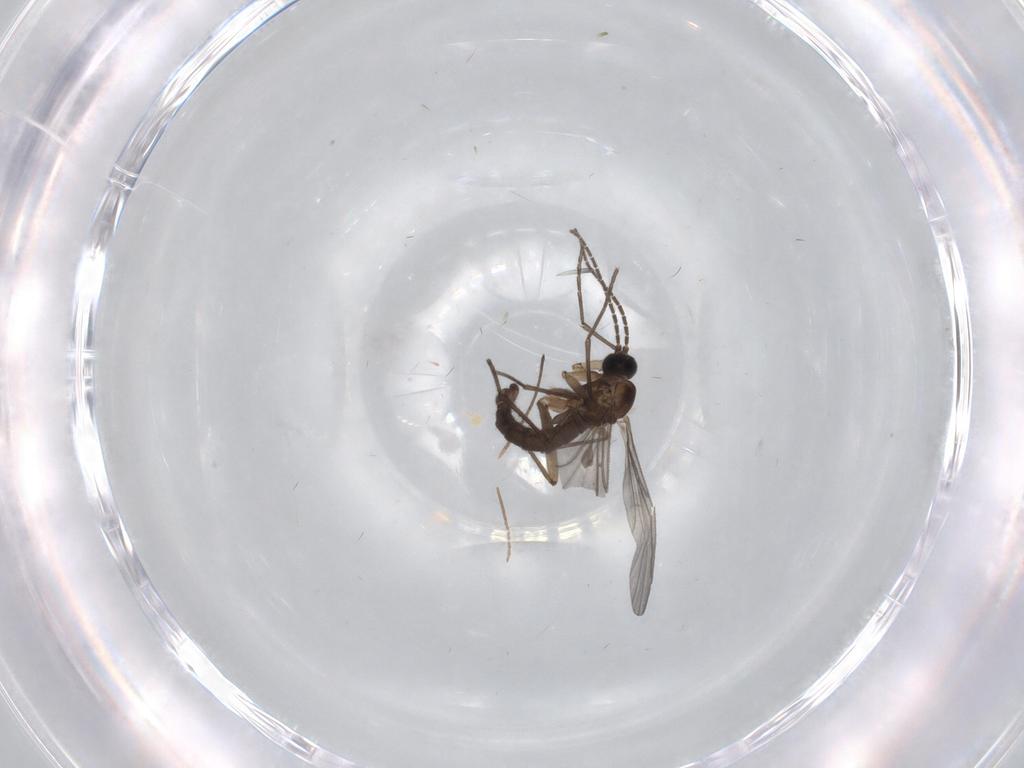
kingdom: Animalia
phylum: Arthropoda
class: Insecta
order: Diptera
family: Sciaridae
